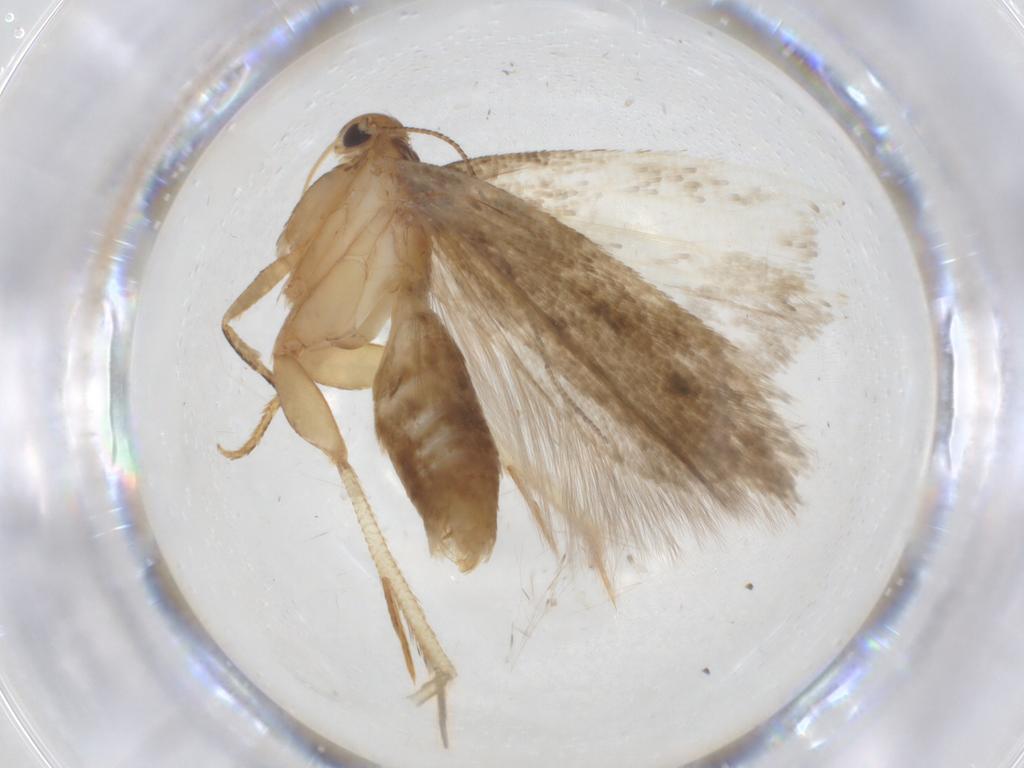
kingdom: Animalia
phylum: Arthropoda
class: Insecta
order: Lepidoptera
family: Gelechiidae
